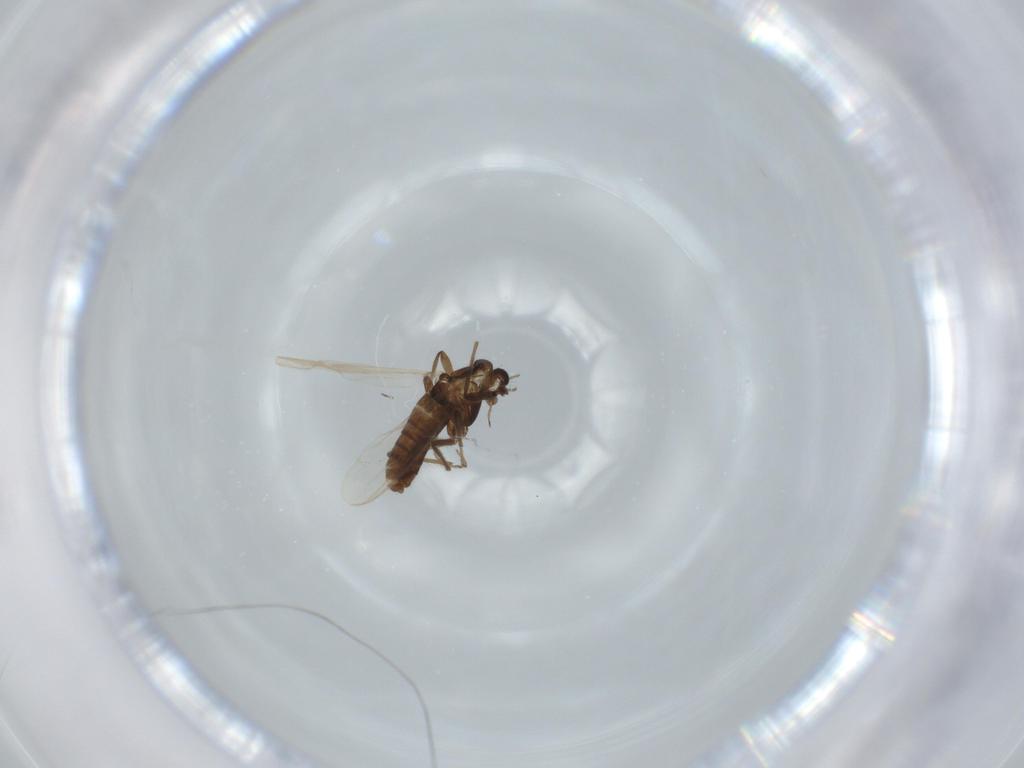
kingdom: Animalia
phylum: Arthropoda
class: Insecta
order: Diptera
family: Chironomidae
